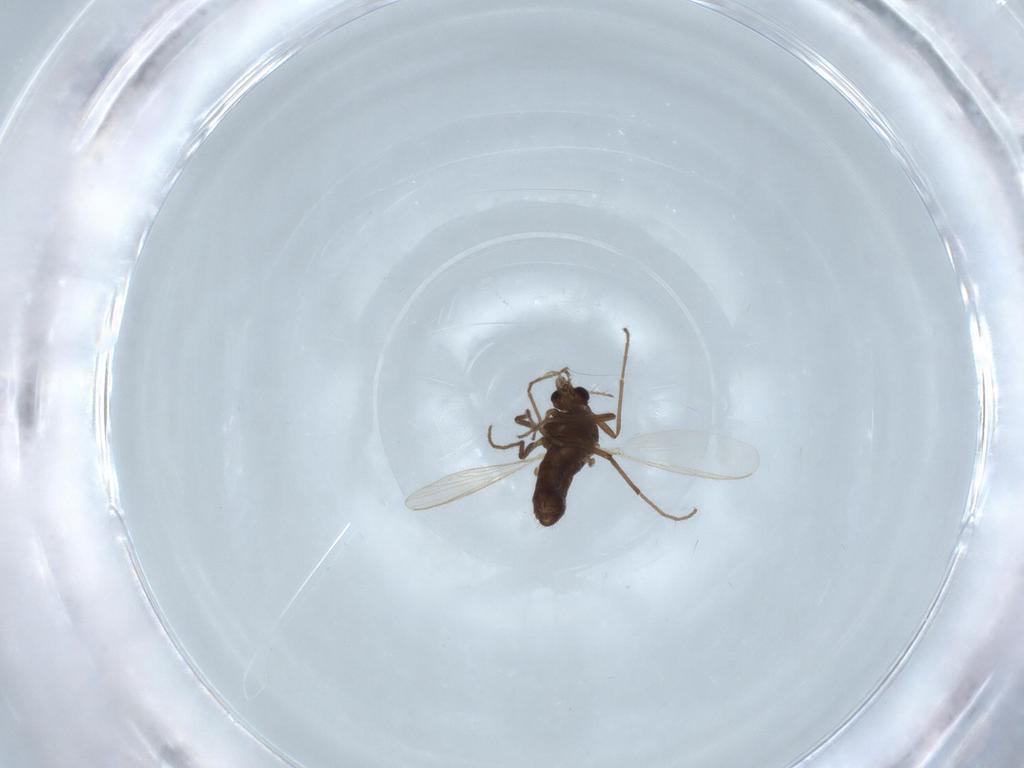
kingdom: Animalia
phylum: Arthropoda
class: Insecta
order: Diptera
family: Chironomidae
